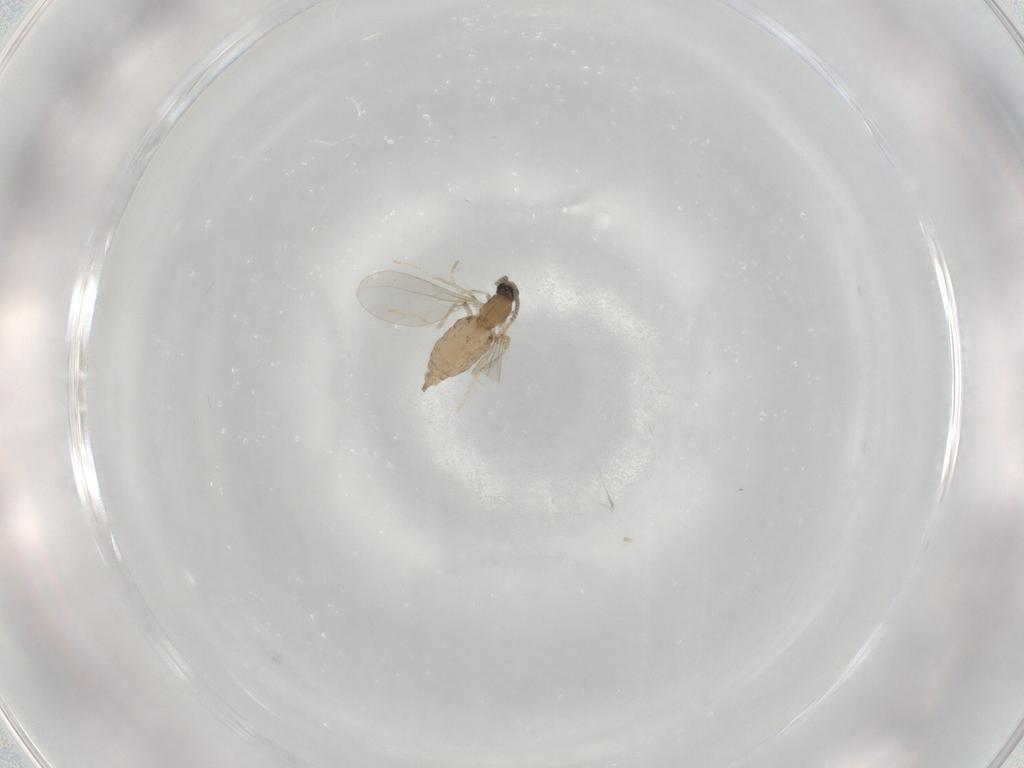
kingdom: Animalia
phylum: Arthropoda
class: Insecta
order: Diptera
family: Cecidomyiidae
